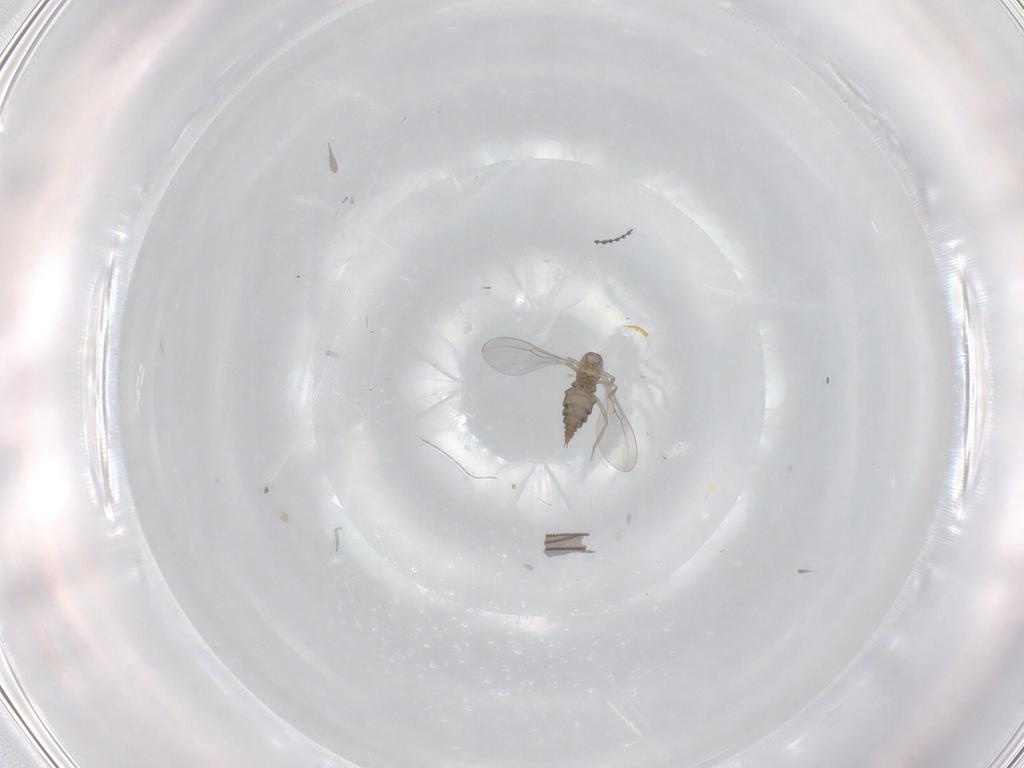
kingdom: Animalia
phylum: Arthropoda
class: Insecta
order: Diptera
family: Cecidomyiidae
